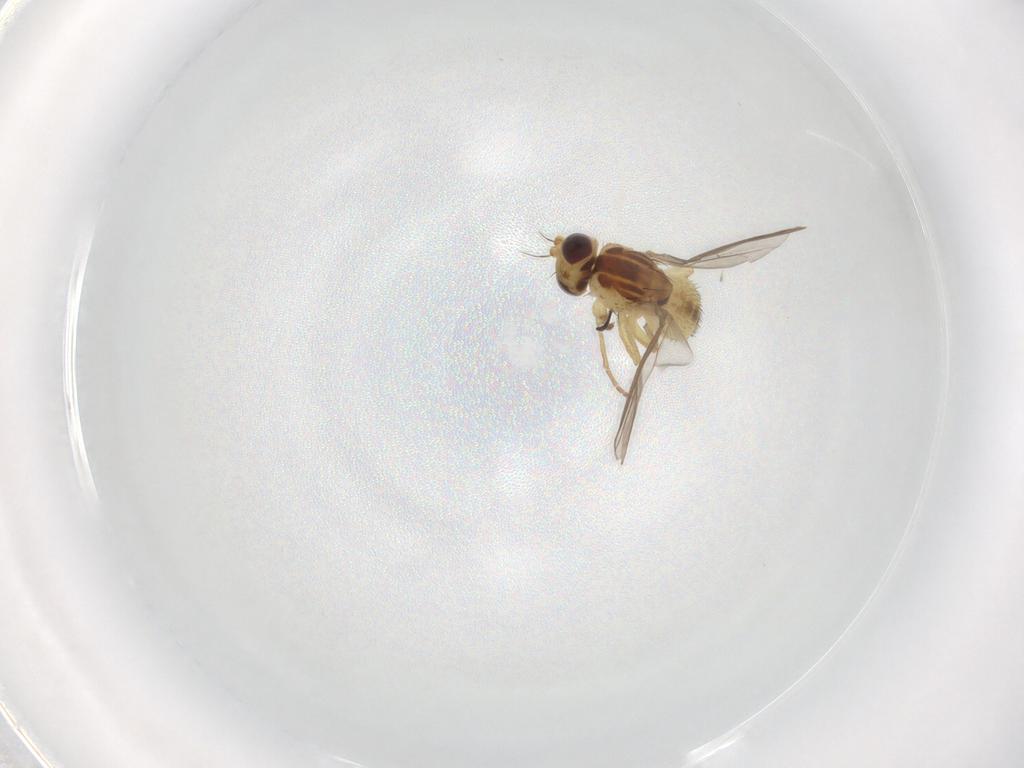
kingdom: Animalia
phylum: Arthropoda
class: Insecta
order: Diptera
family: Agromyzidae
